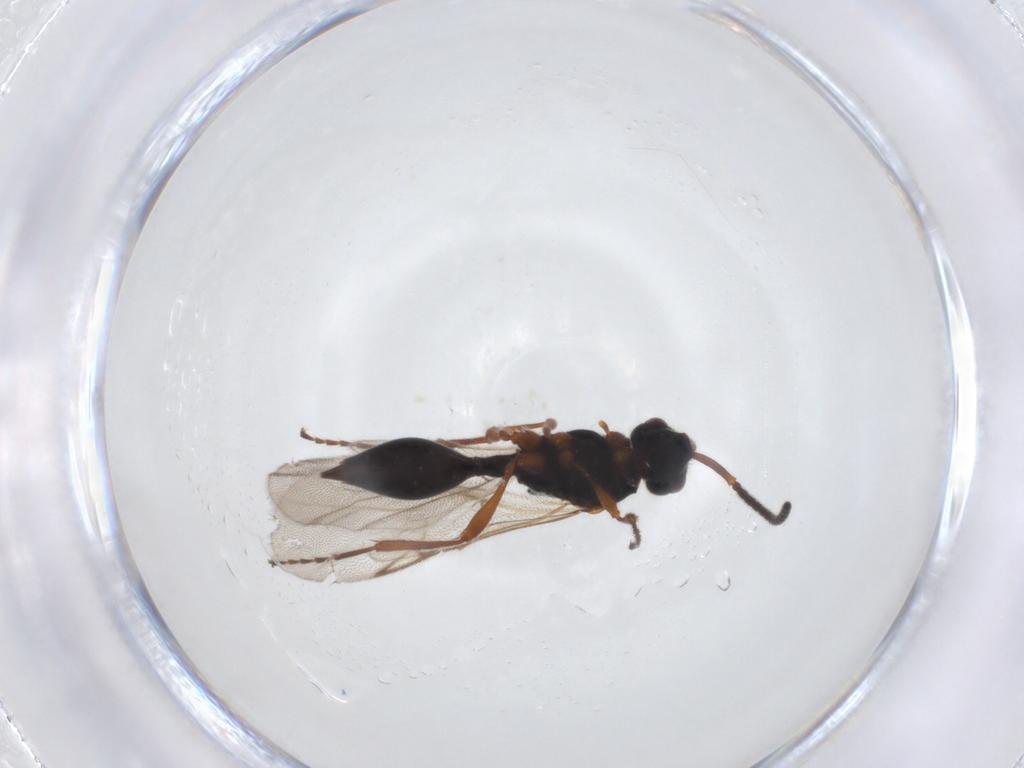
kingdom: Animalia
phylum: Arthropoda
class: Insecta
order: Hymenoptera
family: Diapriidae
